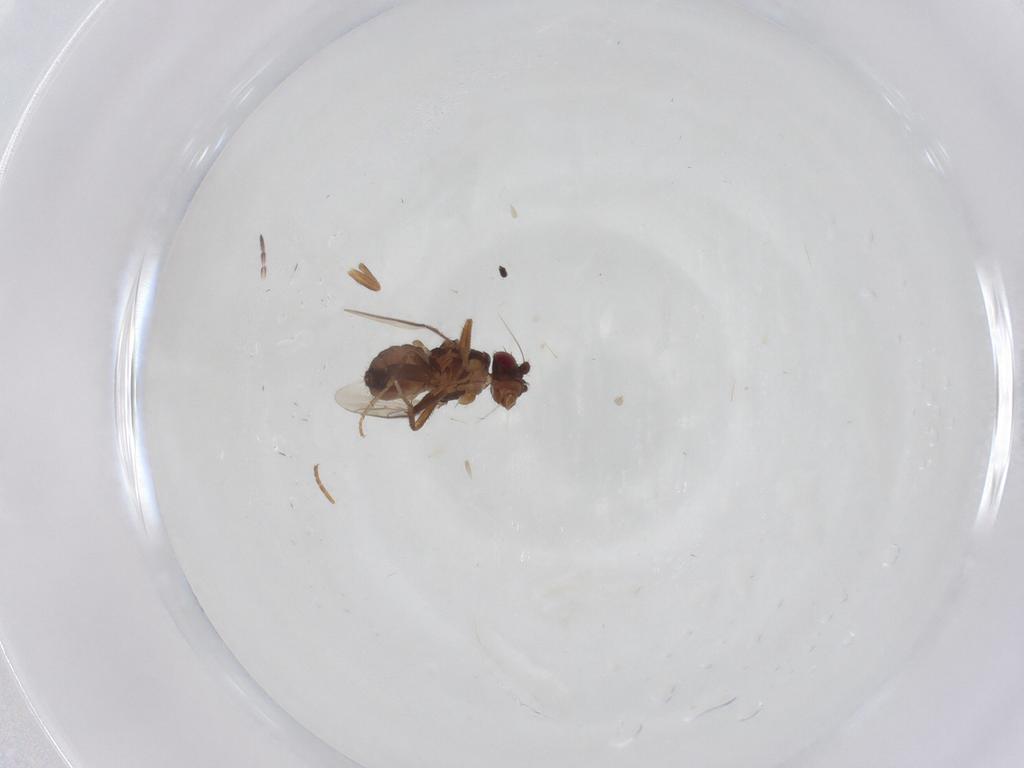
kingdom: Animalia
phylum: Arthropoda
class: Insecta
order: Diptera
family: Sphaeroceridae
